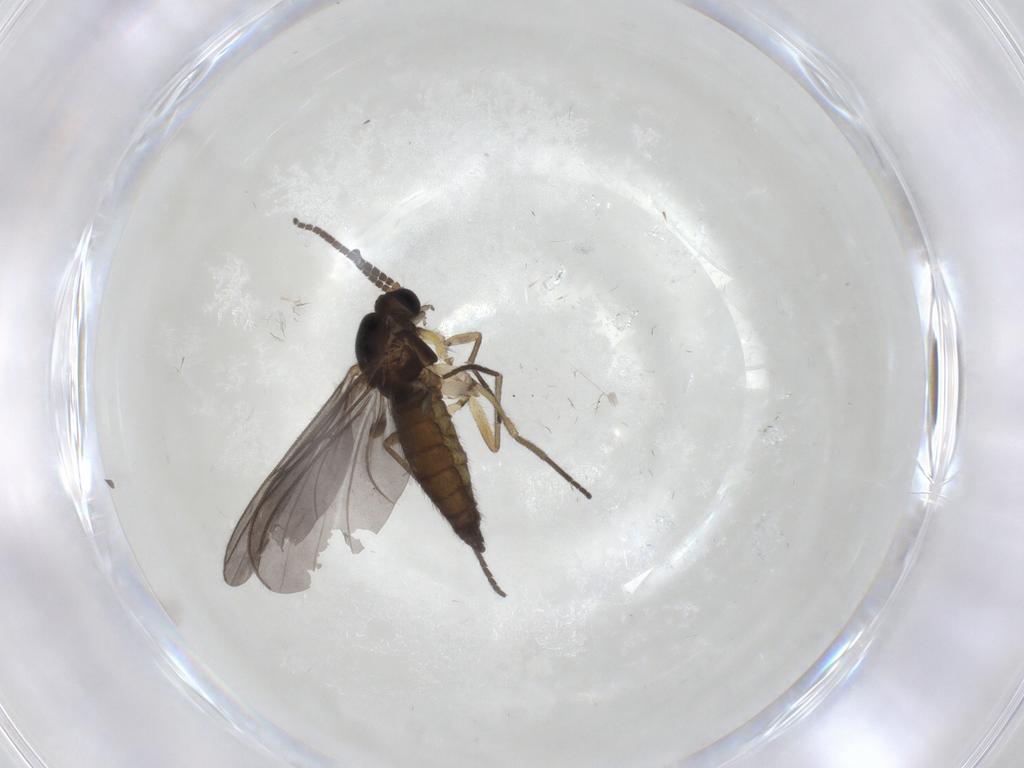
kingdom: Animalia
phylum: Arthropoda
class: Insecta
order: Diptera
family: Sciaridae
